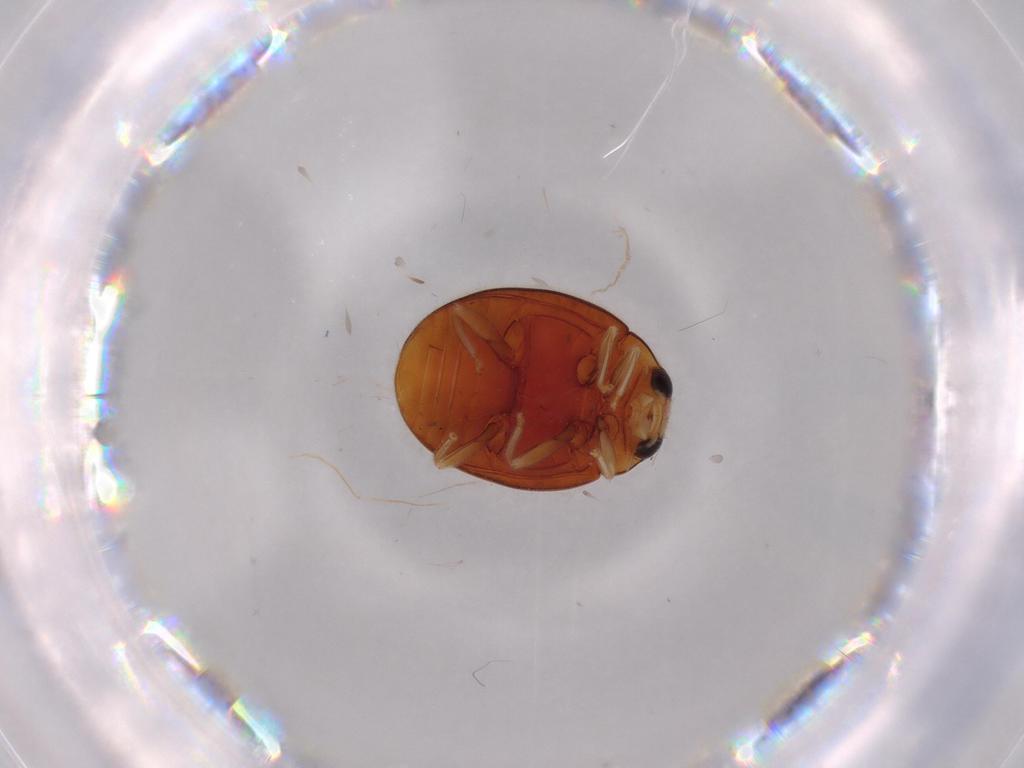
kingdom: Animalia
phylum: Arthropoda
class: Insecta
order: Coleoptera
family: Coccinellidae
